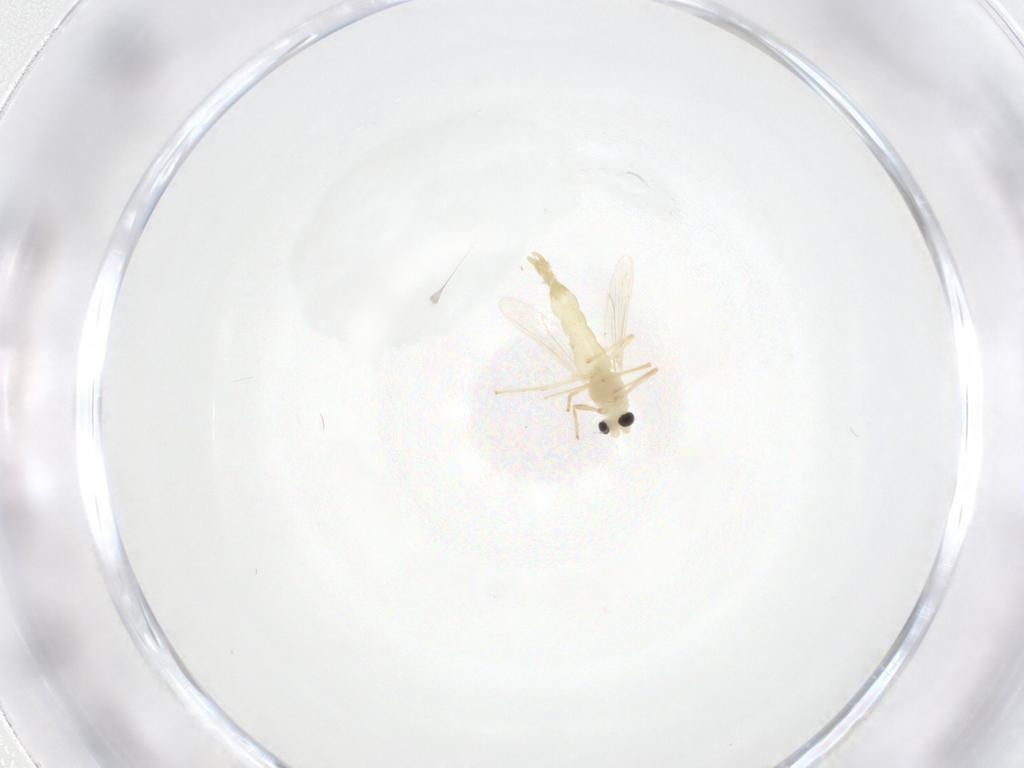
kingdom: Animalia
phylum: Arthropoda
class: Insecta
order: Diptera
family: Chironomidae
